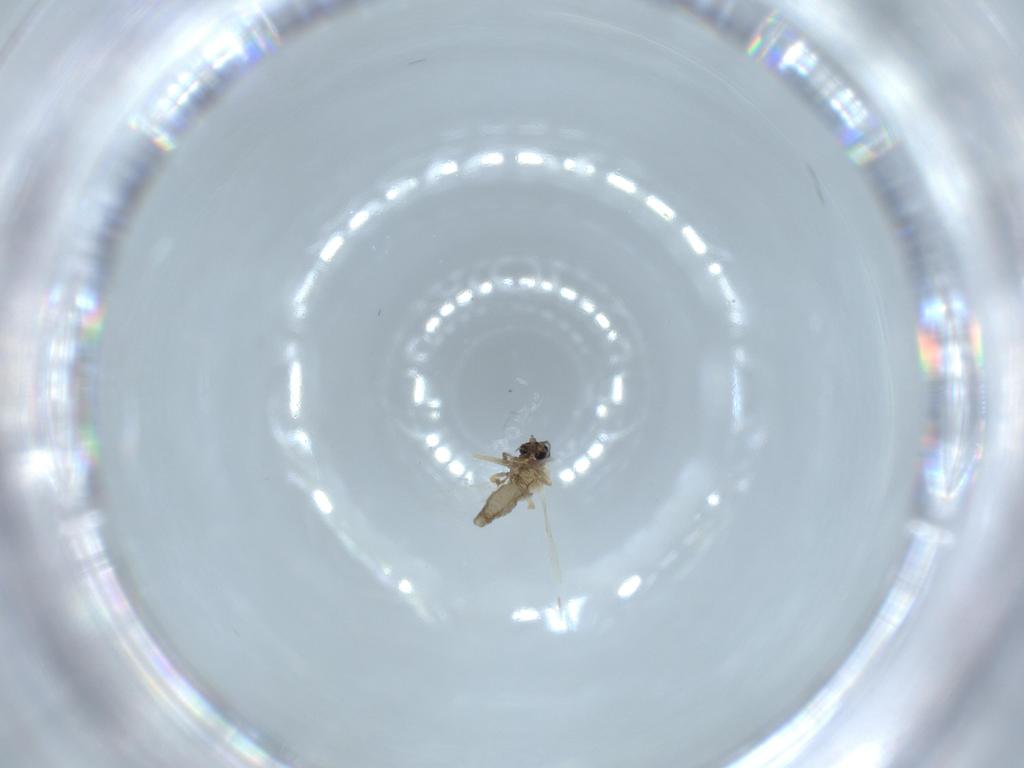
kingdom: Animalia
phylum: Arthropoda
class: Insecta
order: Diptera
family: Ceratopogonidae
